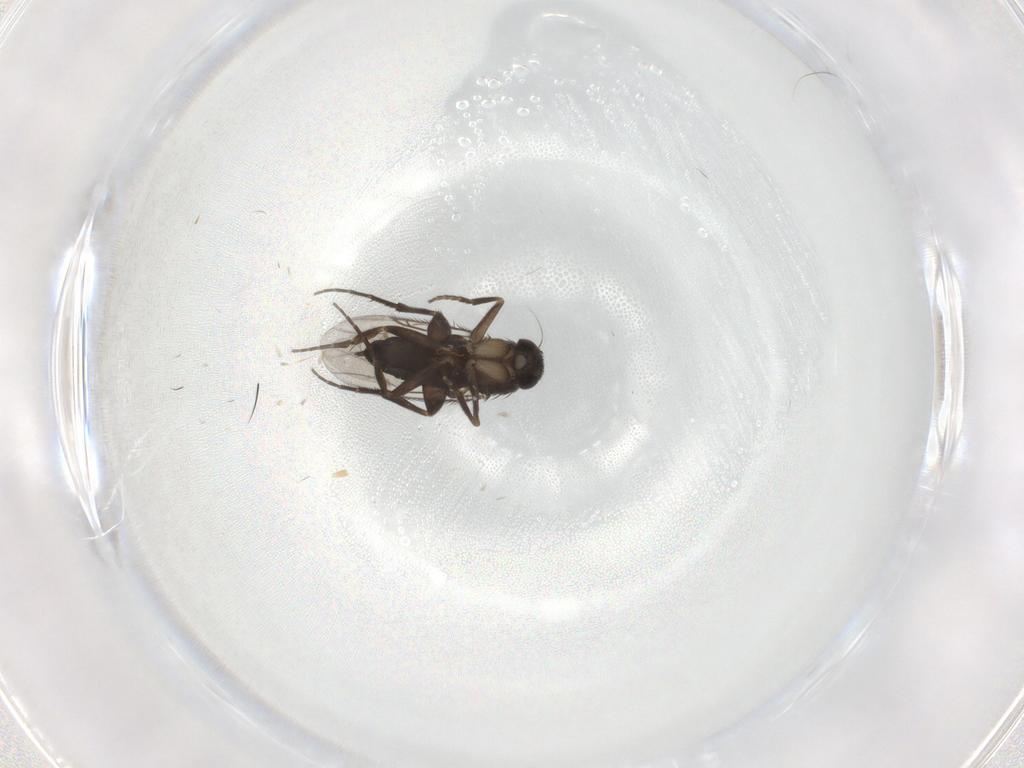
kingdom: Animalia
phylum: Arthropoda
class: Insecta
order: Diptera
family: Phoridae
